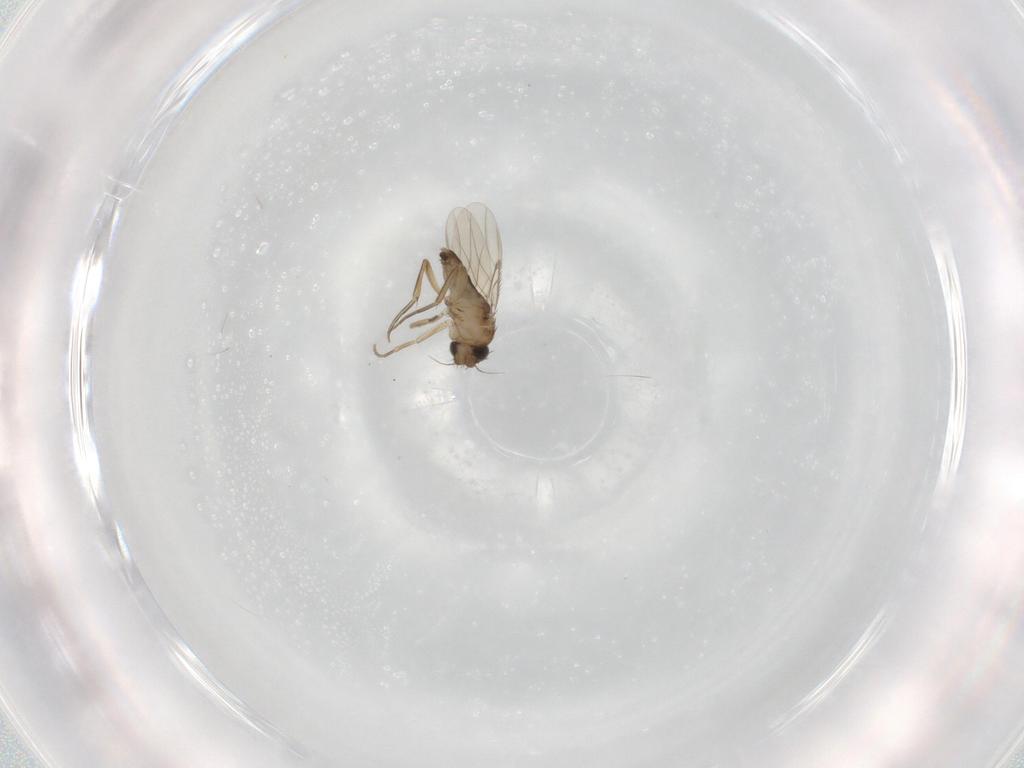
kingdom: Animalia
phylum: Arthropoda
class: Insecta
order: Diptera
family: Phoridae
